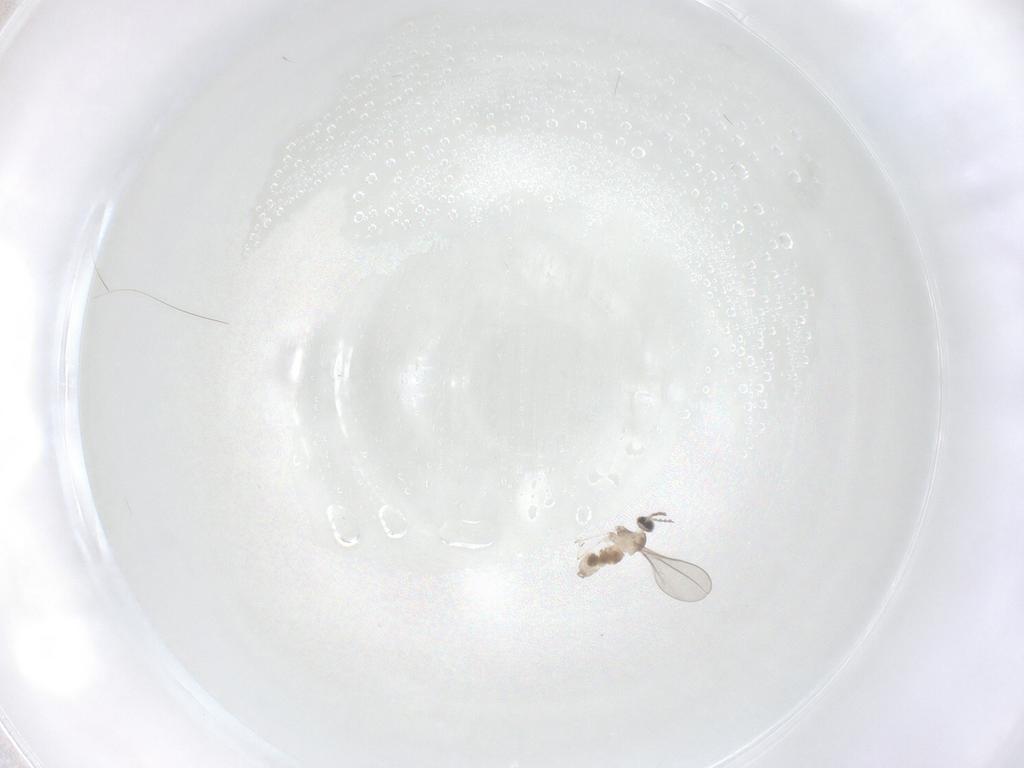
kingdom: Animalia
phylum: Arthropoda
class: Insecta
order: Diptera
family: Cecidomyiidae
